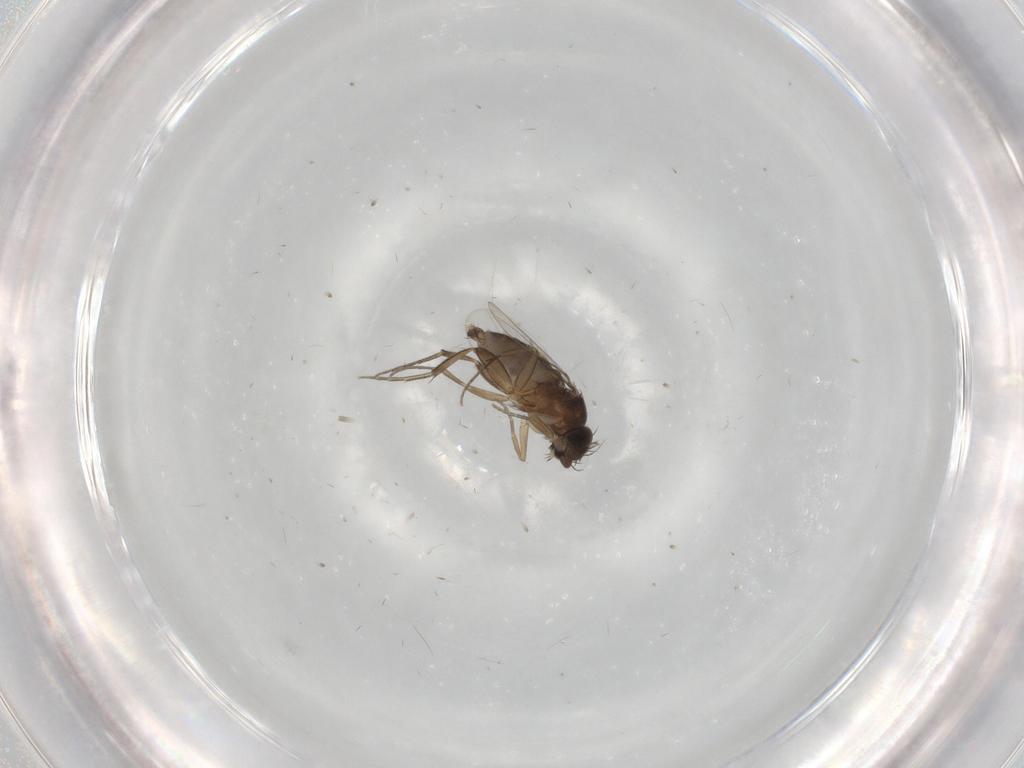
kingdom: Animalia
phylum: Arthropoda
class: Insecta
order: Diptera
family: Phoridae
